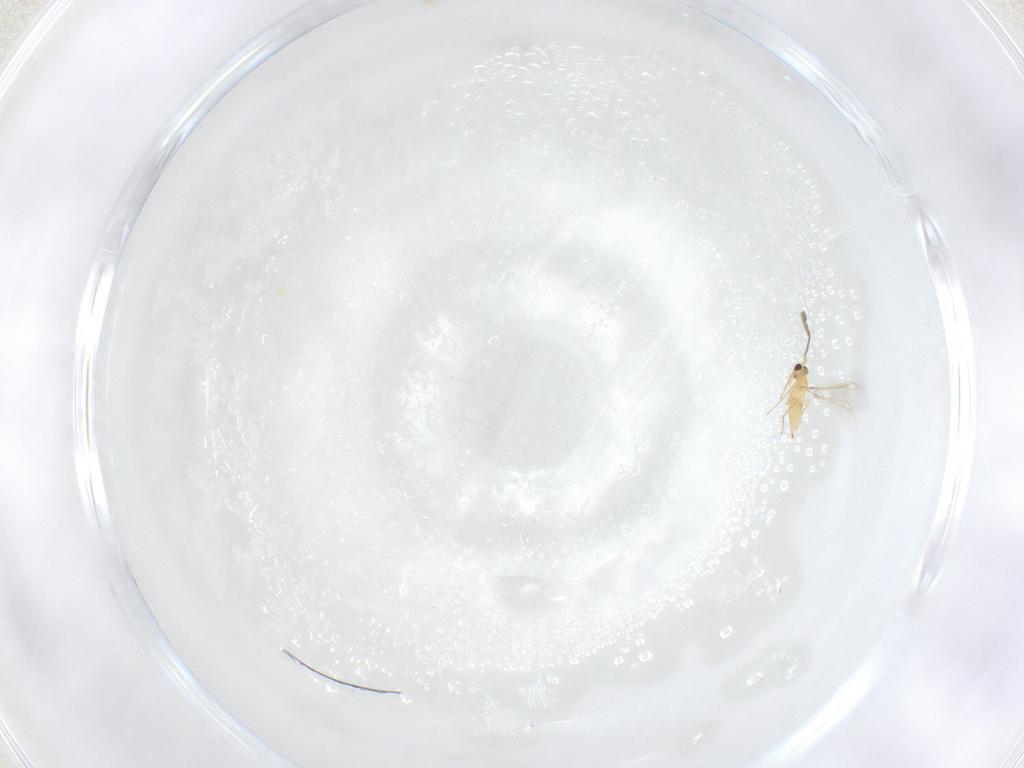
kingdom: Animalia
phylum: Arthropoda
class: Insecta
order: Hymenoptera
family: Mymaridae
